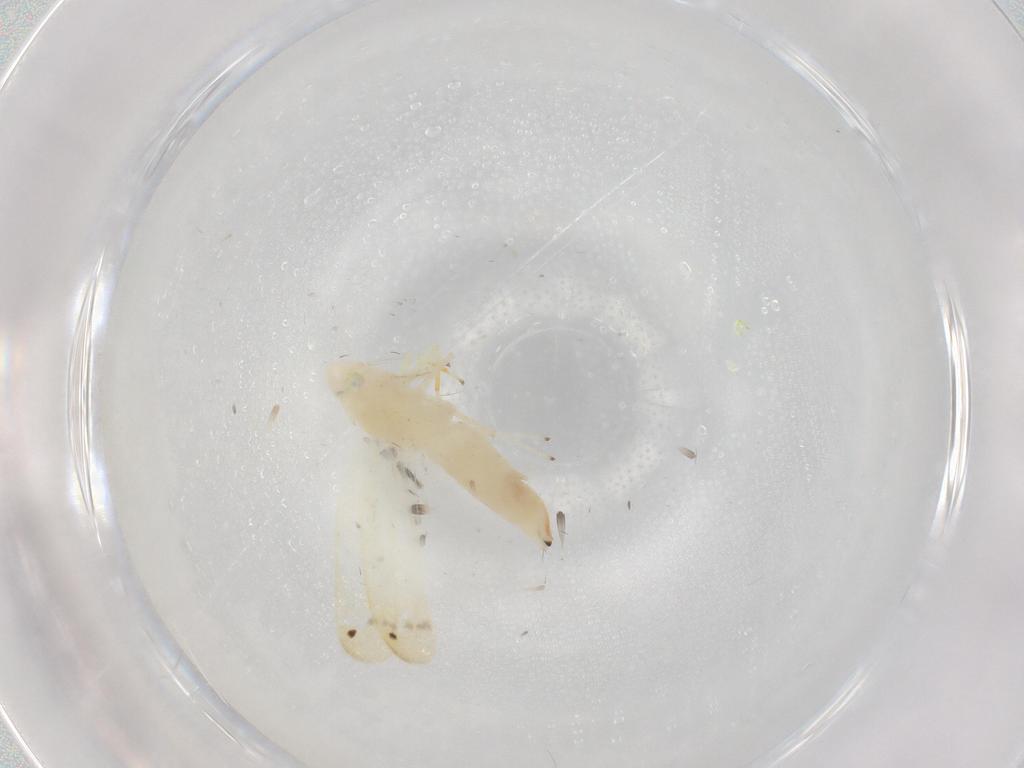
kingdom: Animalia
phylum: Arthropoda
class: Insecta
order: Hemiptera
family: Cicadellidae
